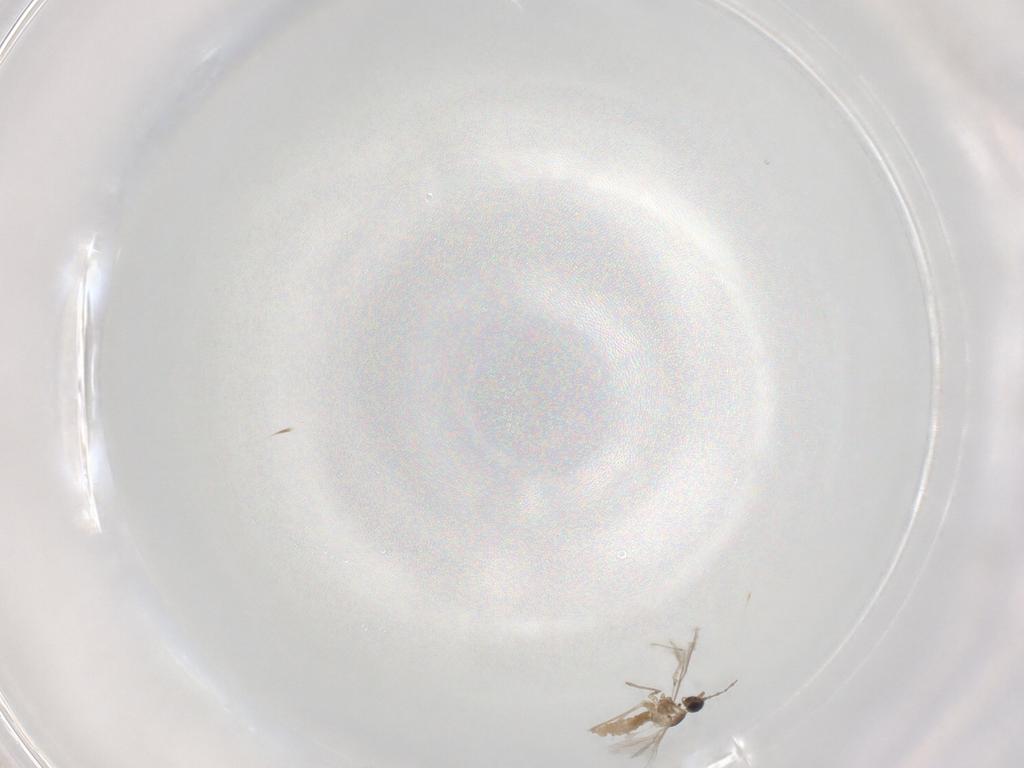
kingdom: Animalia
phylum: Arthropoda
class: Insecta
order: Diptera
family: Cecidomyiidae
